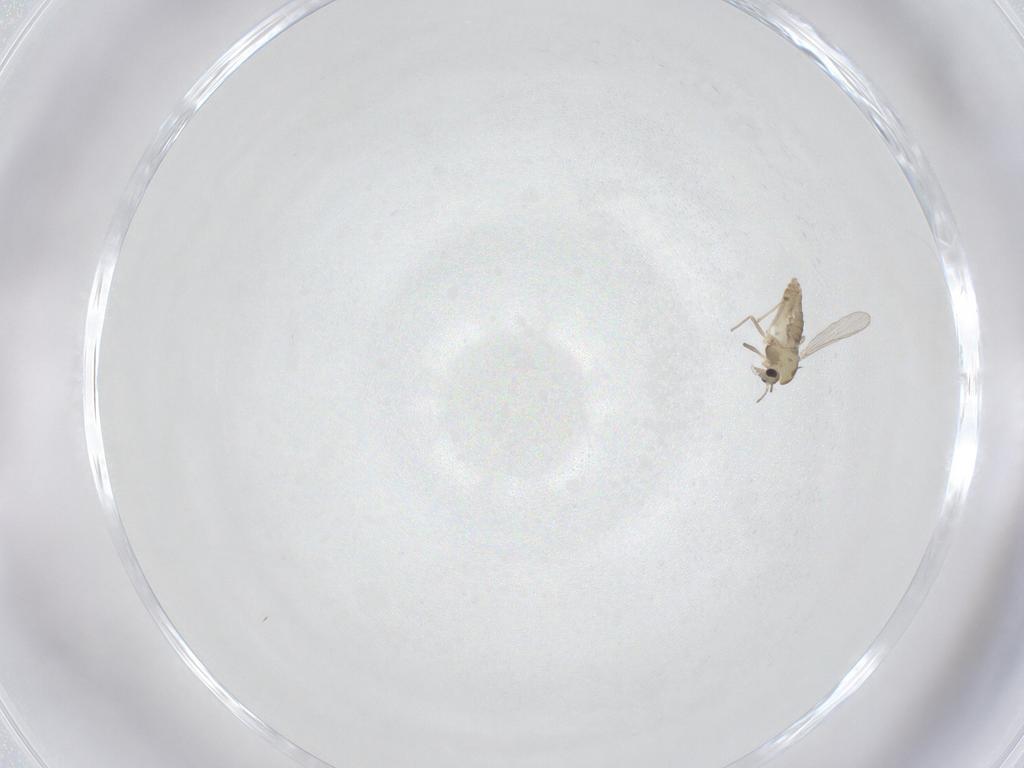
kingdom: Animalia
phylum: Arthropoda
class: Insecta
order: Diptera
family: Chironomidae
